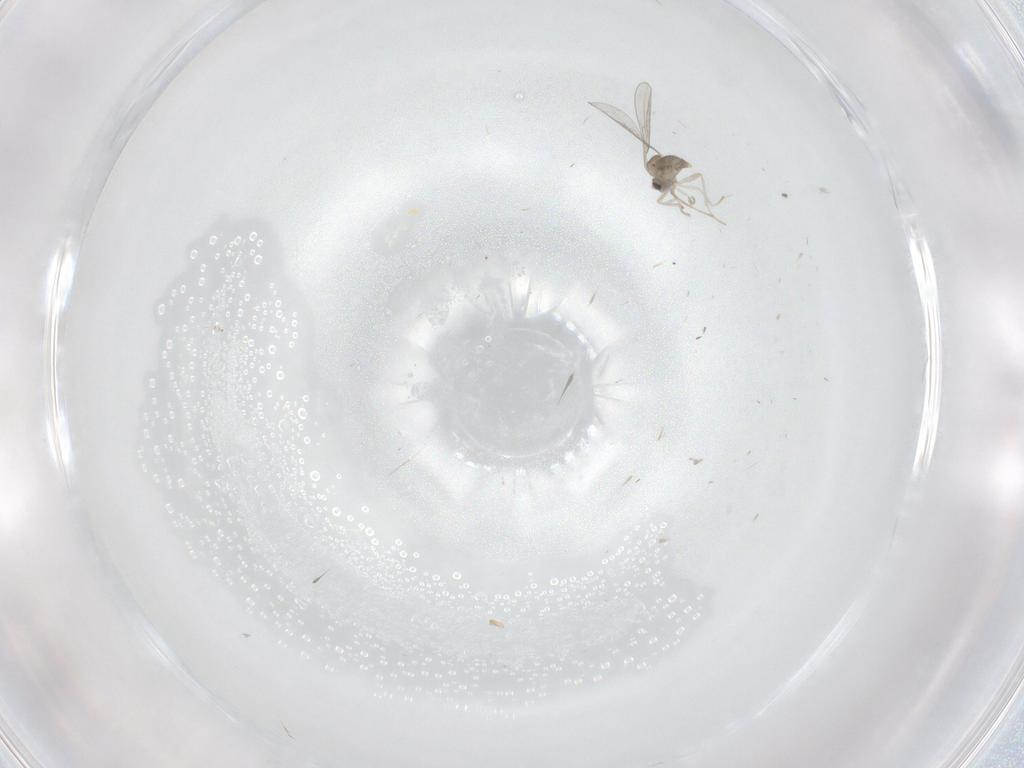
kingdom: Animalia
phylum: Arthropoda
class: Insecta
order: Diptera
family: Cecidomyiidae
